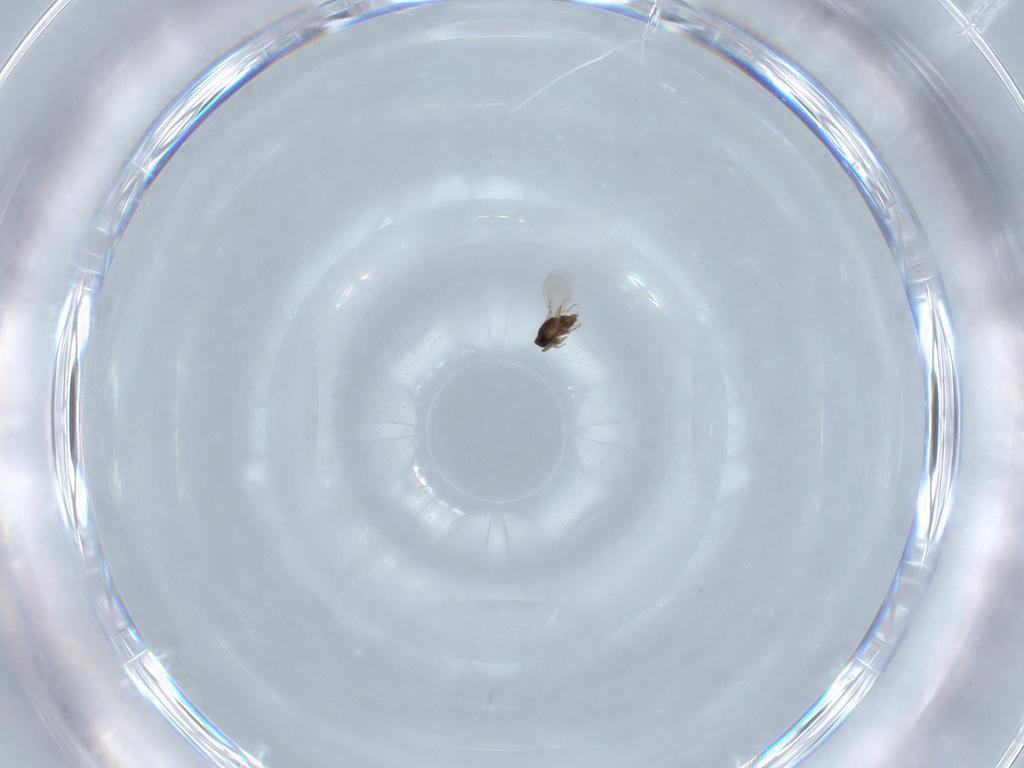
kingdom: Animalia
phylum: Arthropoda
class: Insecta
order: Hymenoptera
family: Encyrtidae
